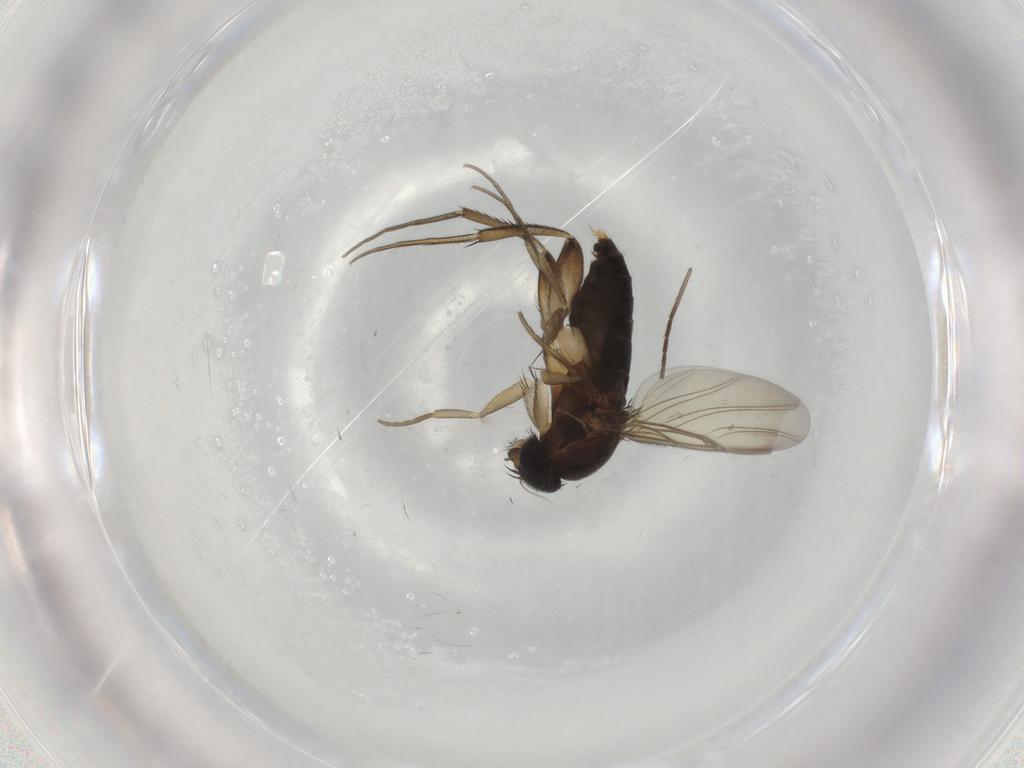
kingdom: Animalia
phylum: Arthropoda
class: Insecta
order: Diptera
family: Phoridae
